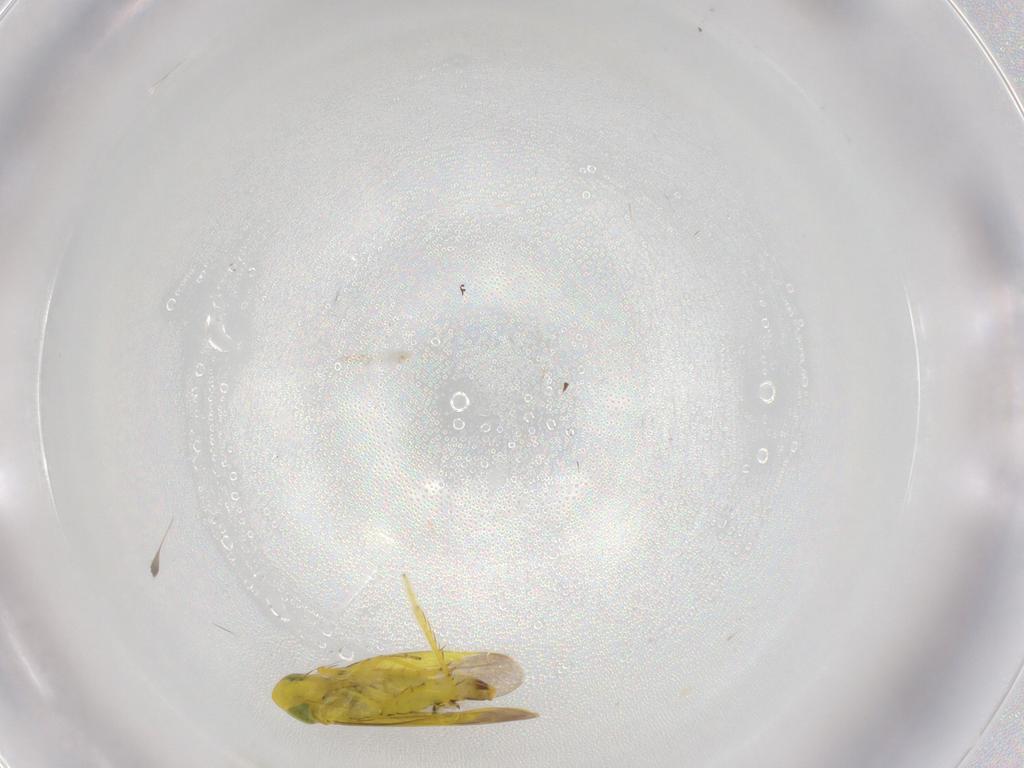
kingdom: Animalia
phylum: Arthropoda
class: Insecta
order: Hemiptera
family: Cicadellidae
